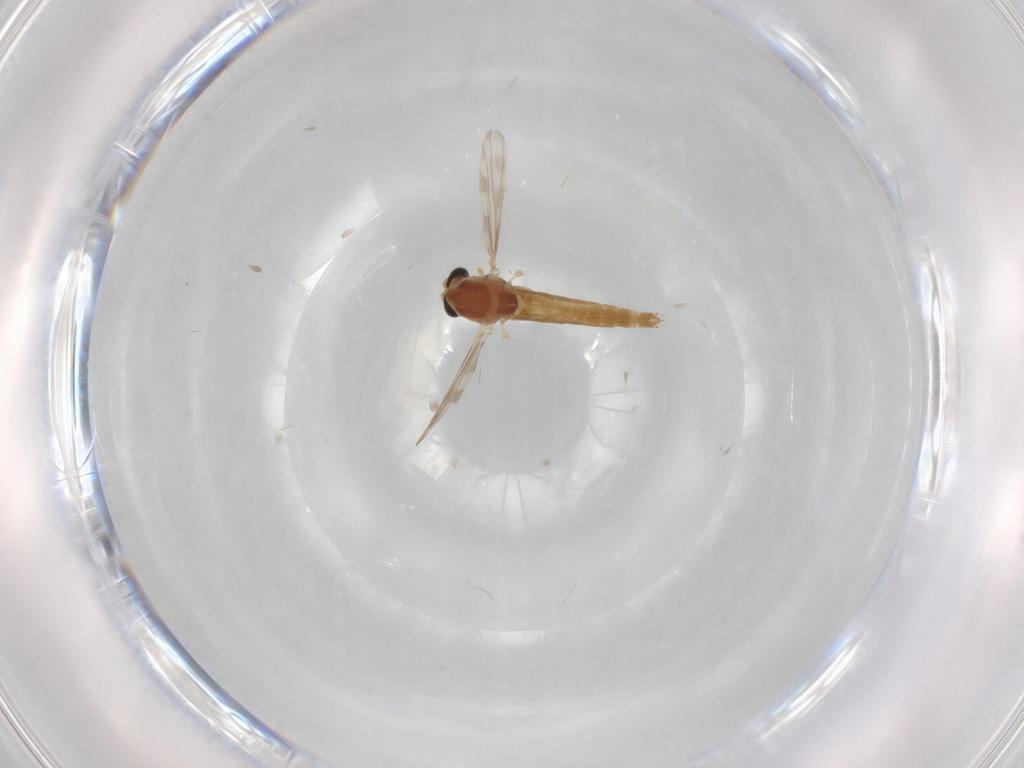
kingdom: Animalia
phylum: Arthropoda
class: Insecta
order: Diptera
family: Chironomidae
